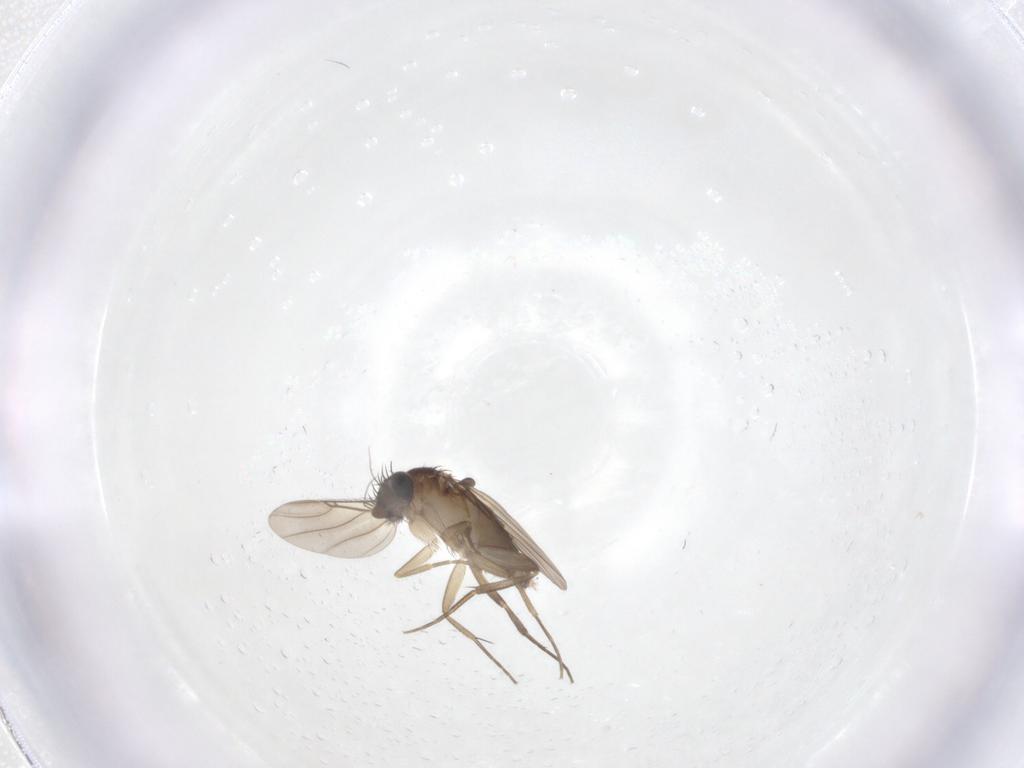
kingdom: Animalia
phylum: Arthropoda
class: Insecta
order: Diptera
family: Phoridae
